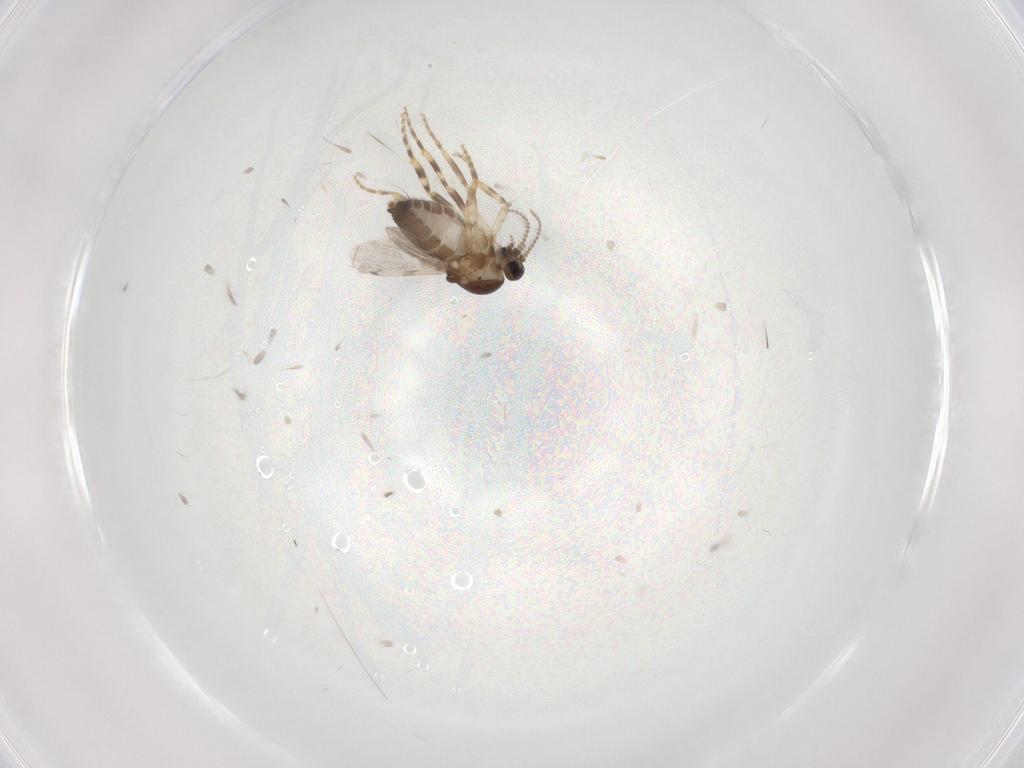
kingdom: Animalia
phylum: Arthropoda
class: Insecta
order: Diptera
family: Ceratopogonidae
